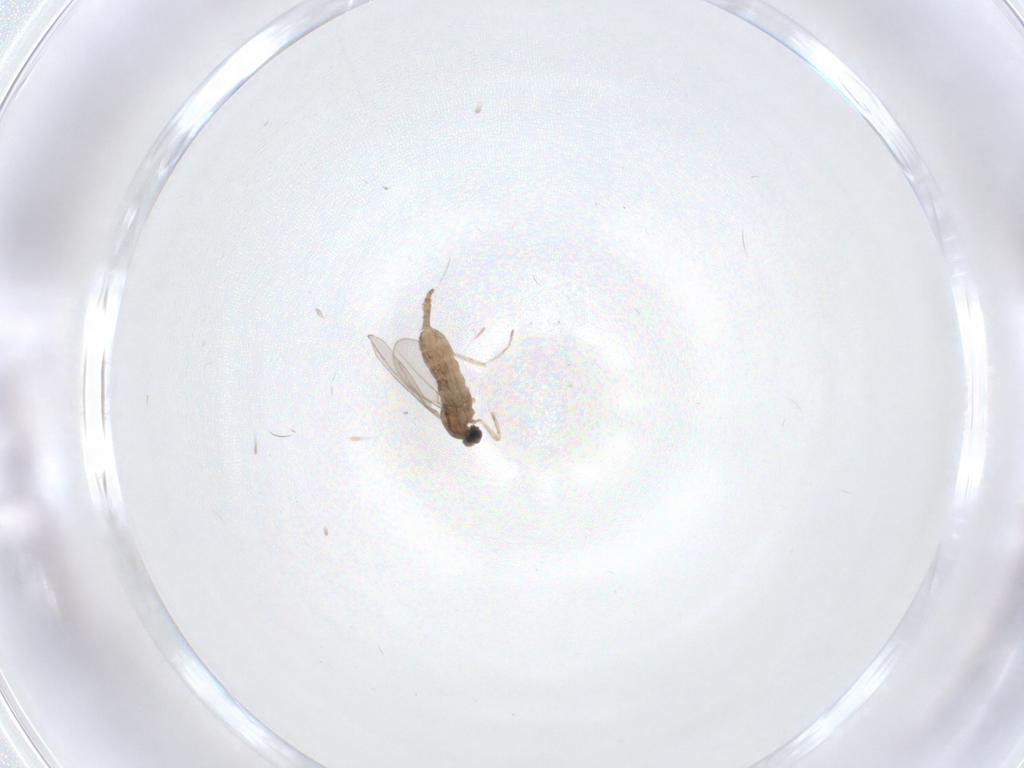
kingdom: Animalia
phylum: Arthropoda
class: Insecta
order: Diptera
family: Cecidomyiidae
